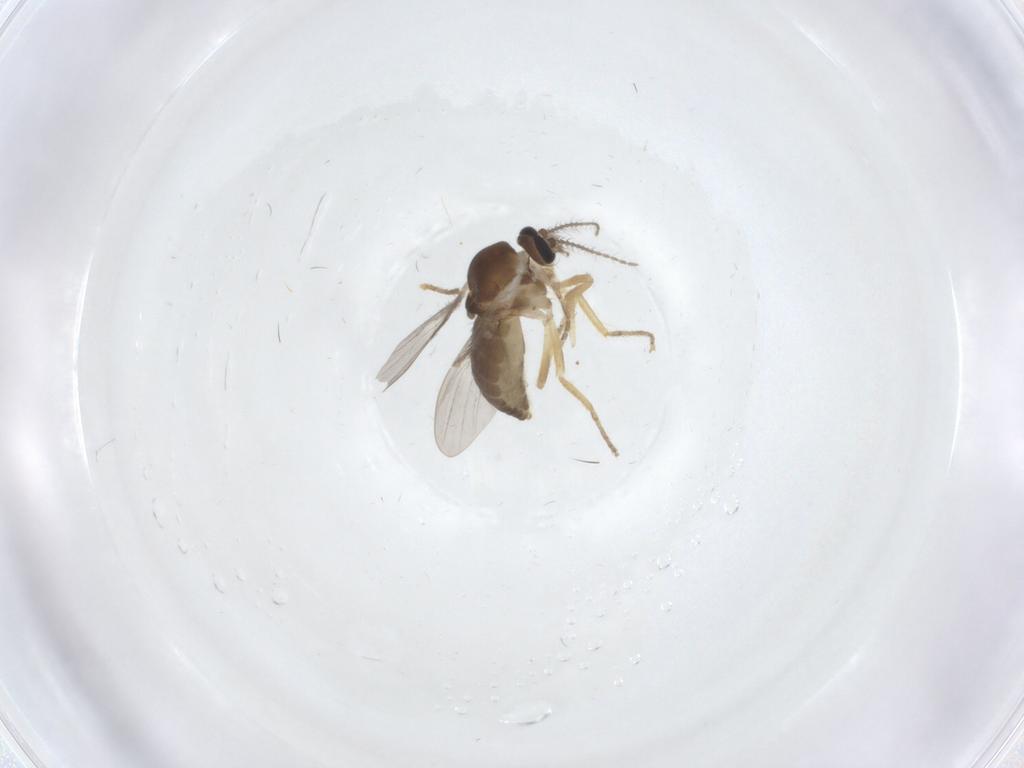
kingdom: Animalia
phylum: Arthropoda
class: Insecta
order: Diptera
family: Ceratopogonidae
